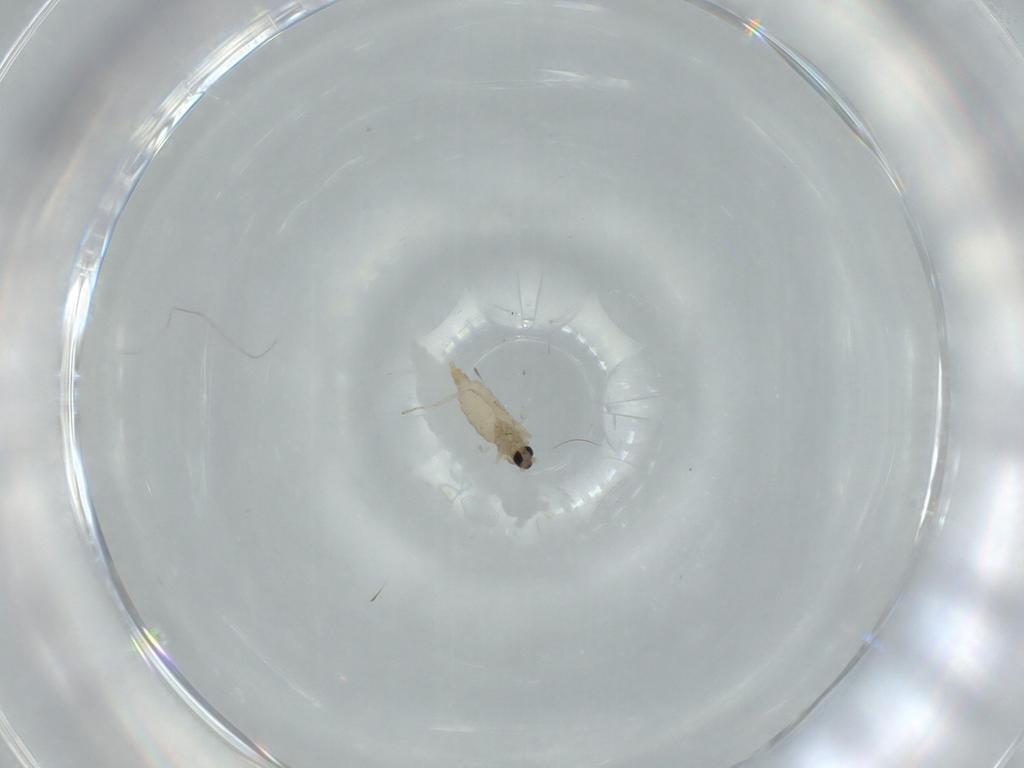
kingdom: Animalia
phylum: Arthropoda
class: Insecta
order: Diptera
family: Cecidomyiidae
